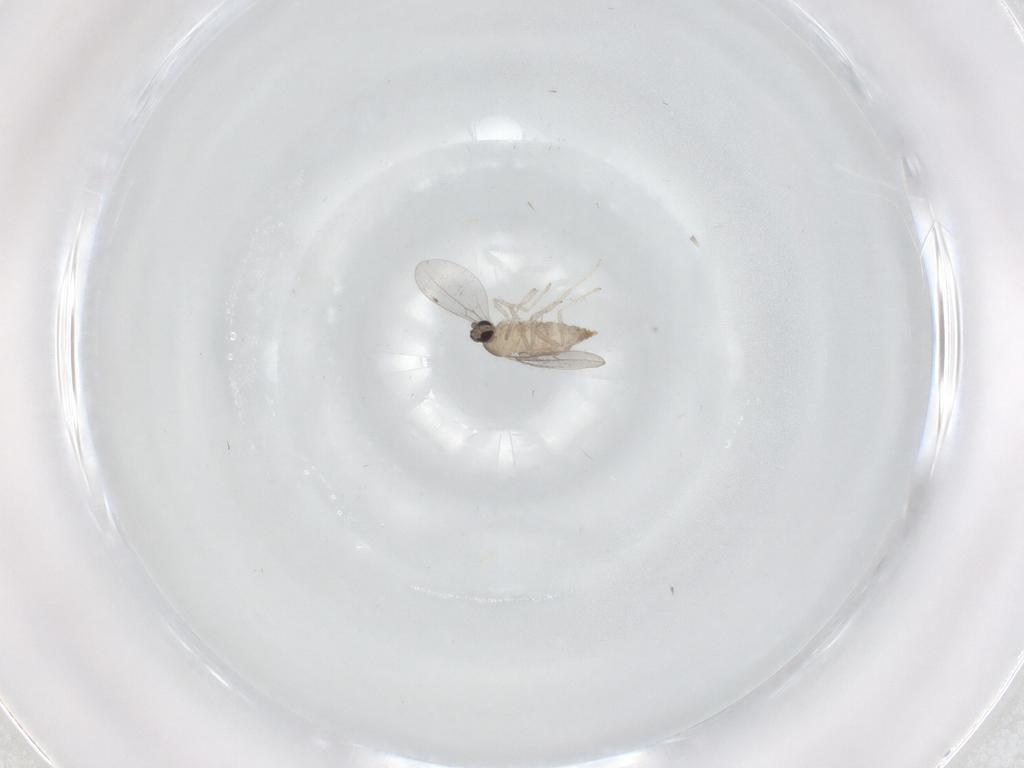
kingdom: Animalia
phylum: Arthropoda
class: Insecta
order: Diptera
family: Cecidomyiidae
